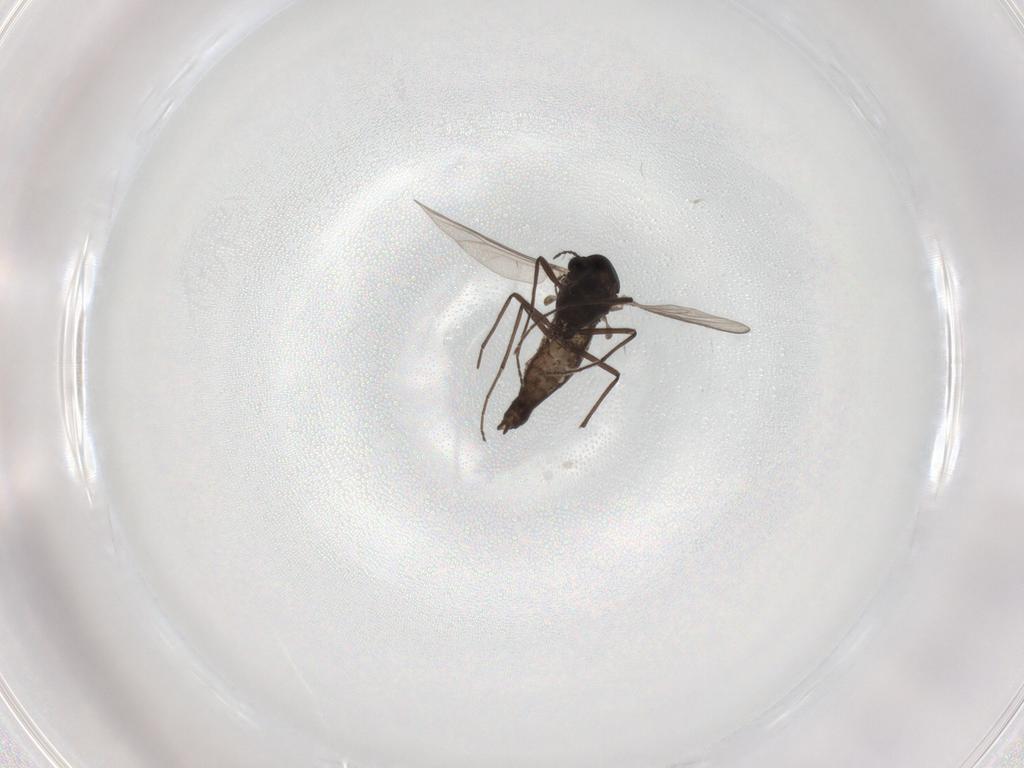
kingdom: Animalia
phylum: Arthropoda
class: Insecta
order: Diptera
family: Chironomidae
